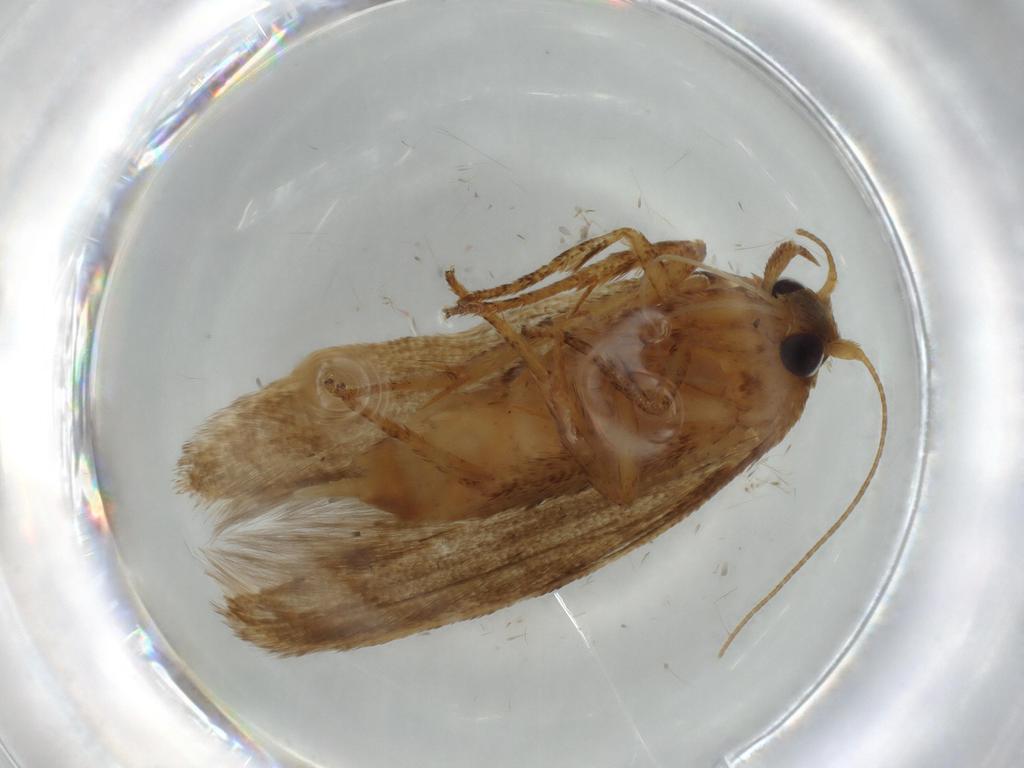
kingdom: Animalia
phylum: Arthropoda
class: Insecta
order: Lepidoptera
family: Coleophoridae
